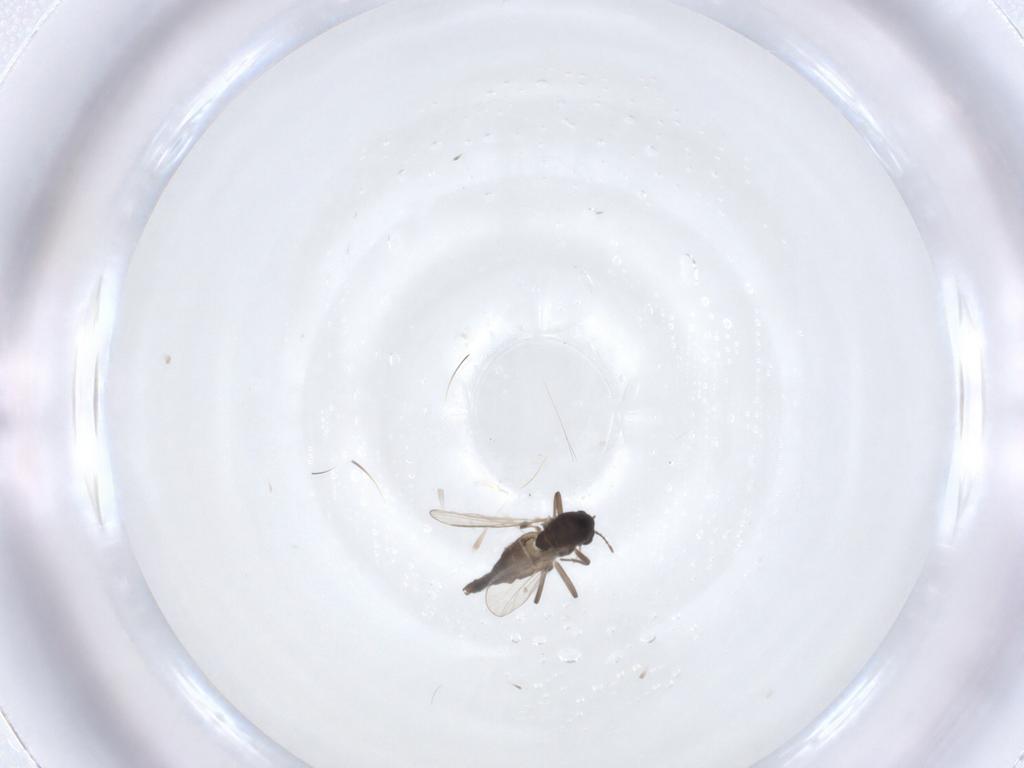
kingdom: Animalia
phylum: Arthropoda
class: Insecta
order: Diptera
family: Chironomidae
